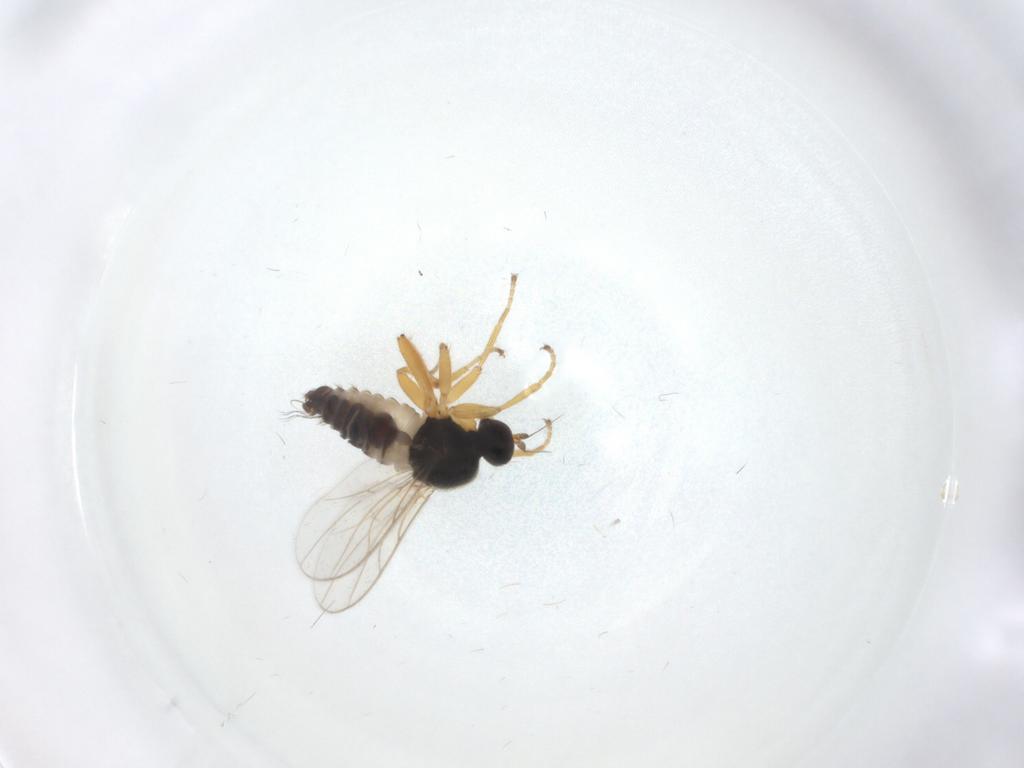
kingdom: Animalia
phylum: Arthropoda
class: Insecta
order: Diptera
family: Hybotidae
